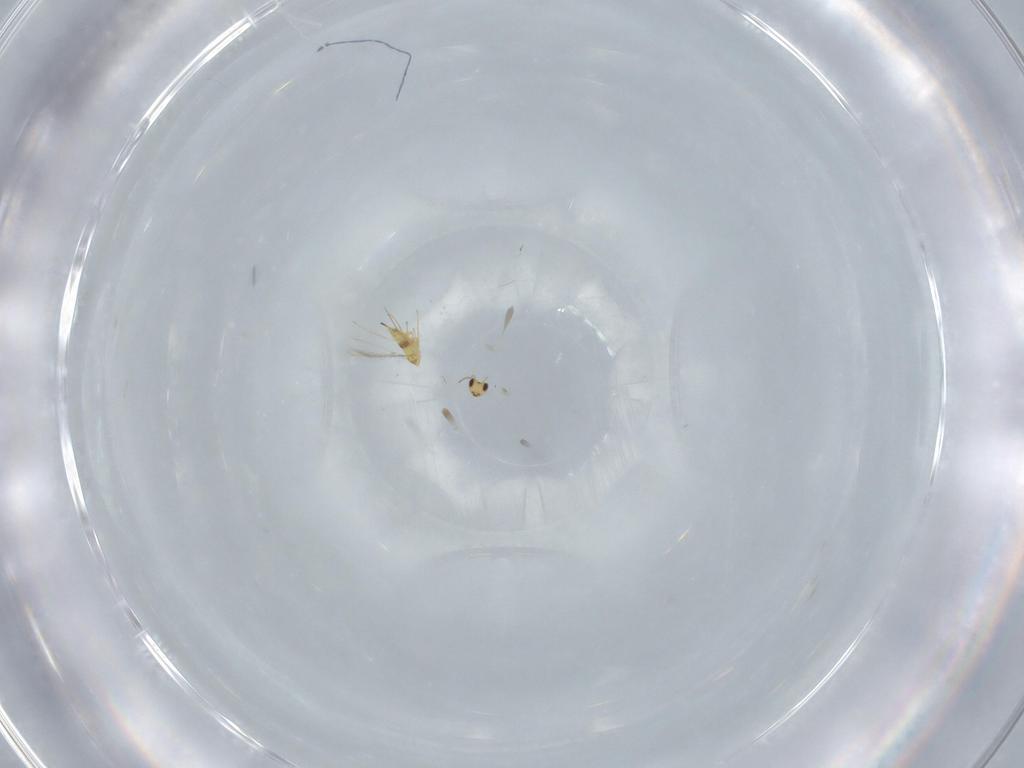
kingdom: Animalia
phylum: Arthropoda
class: Insecta
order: Hymenoptera
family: Mymaridae
